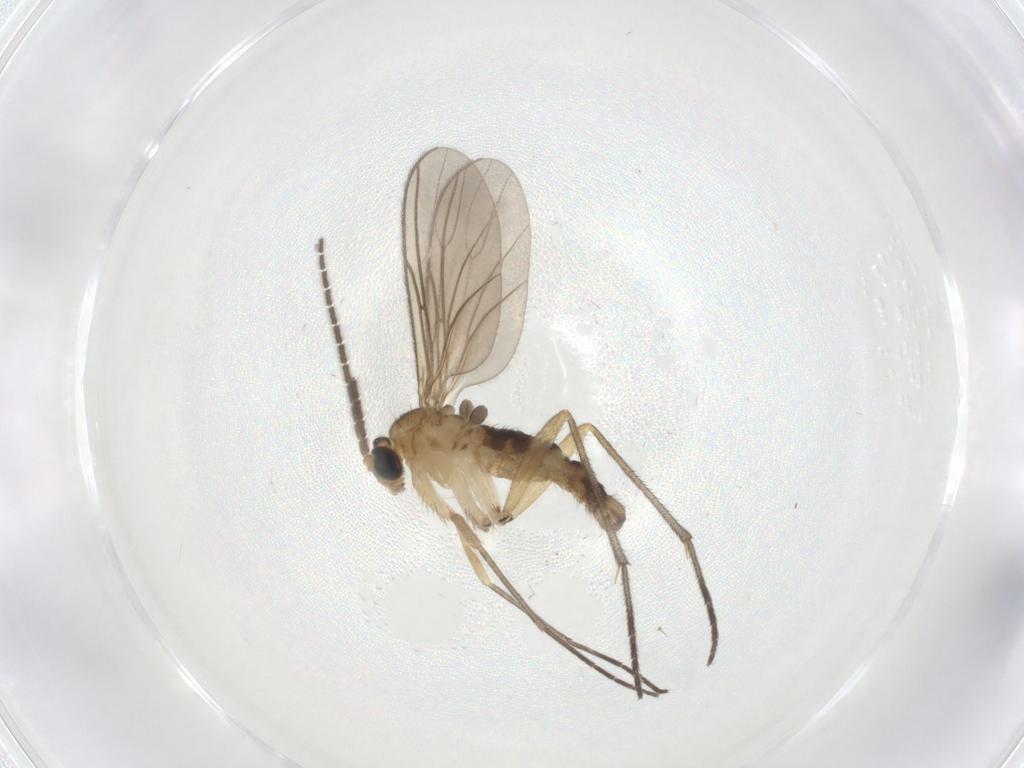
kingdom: Animalia
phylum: Arthropoda
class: Insecta
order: Diptera
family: Sciaridae
